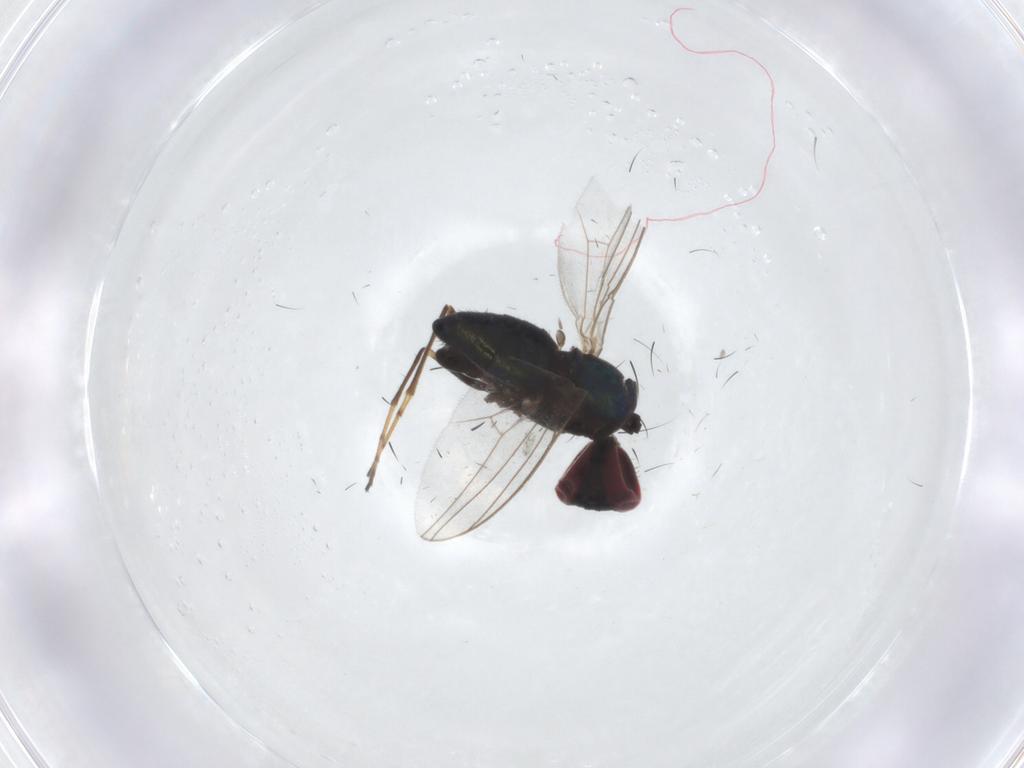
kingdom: Animalia
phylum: Arthropoda
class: Insecta
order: Diptera
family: Dolichopodidae
